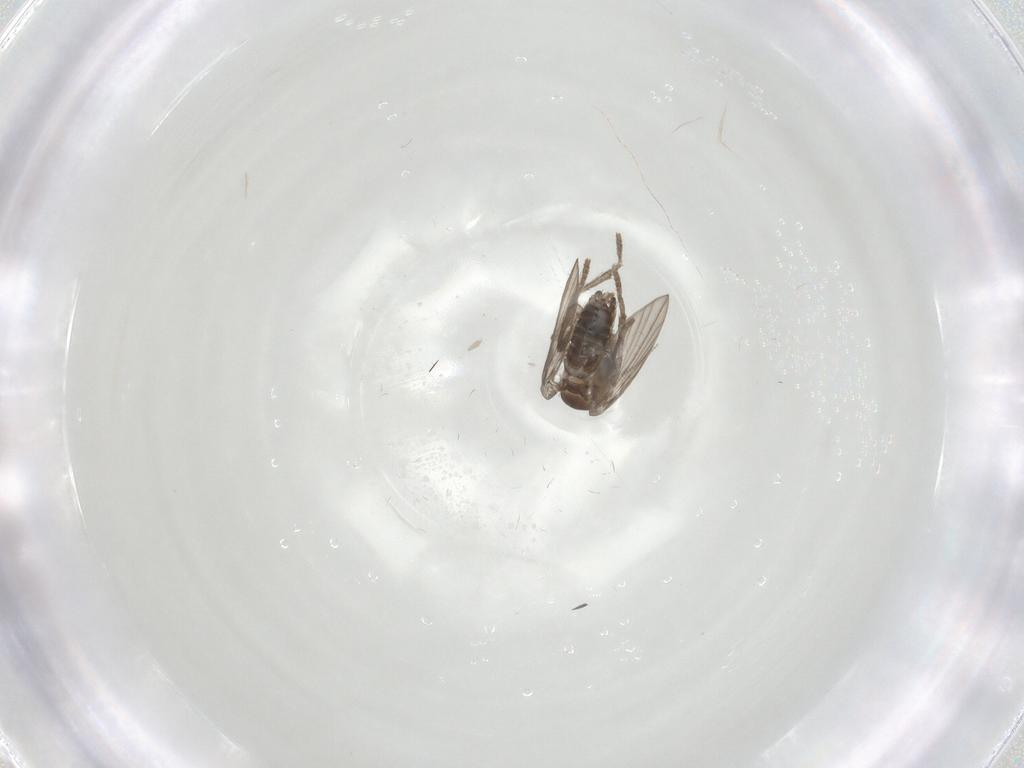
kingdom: Animalia
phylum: Arthropoda
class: Insecta
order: Diptera
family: Psychodidae
